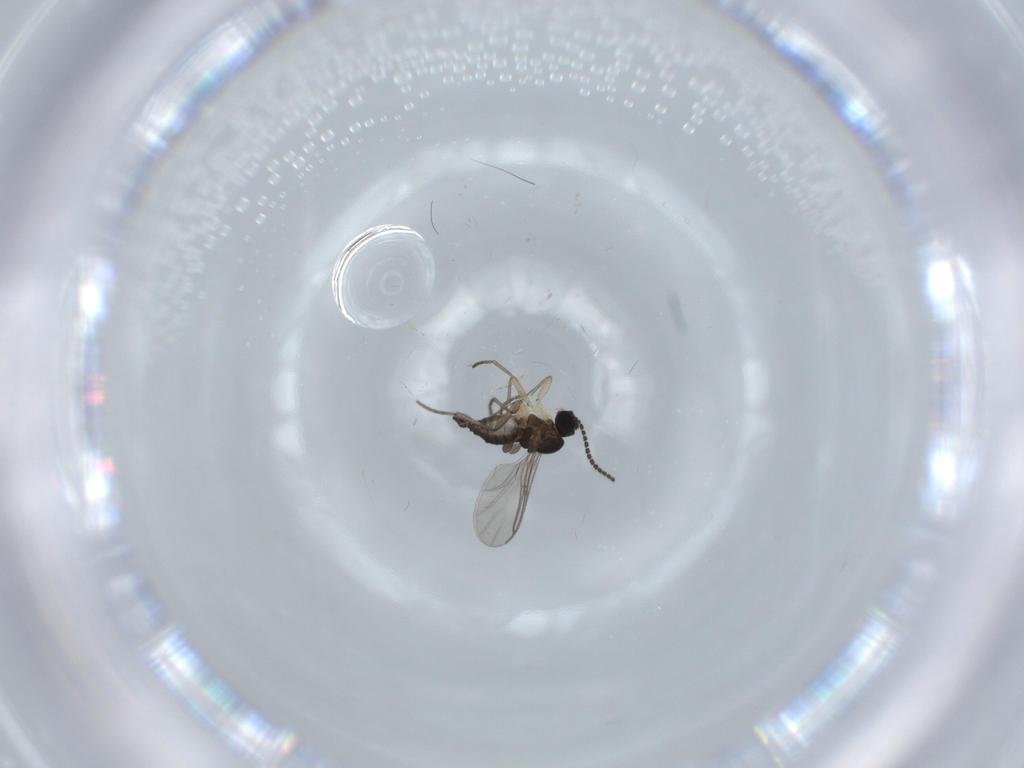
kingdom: Animalia
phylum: Arthropoda
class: Insecta
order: Diptera
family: Sciaridae
